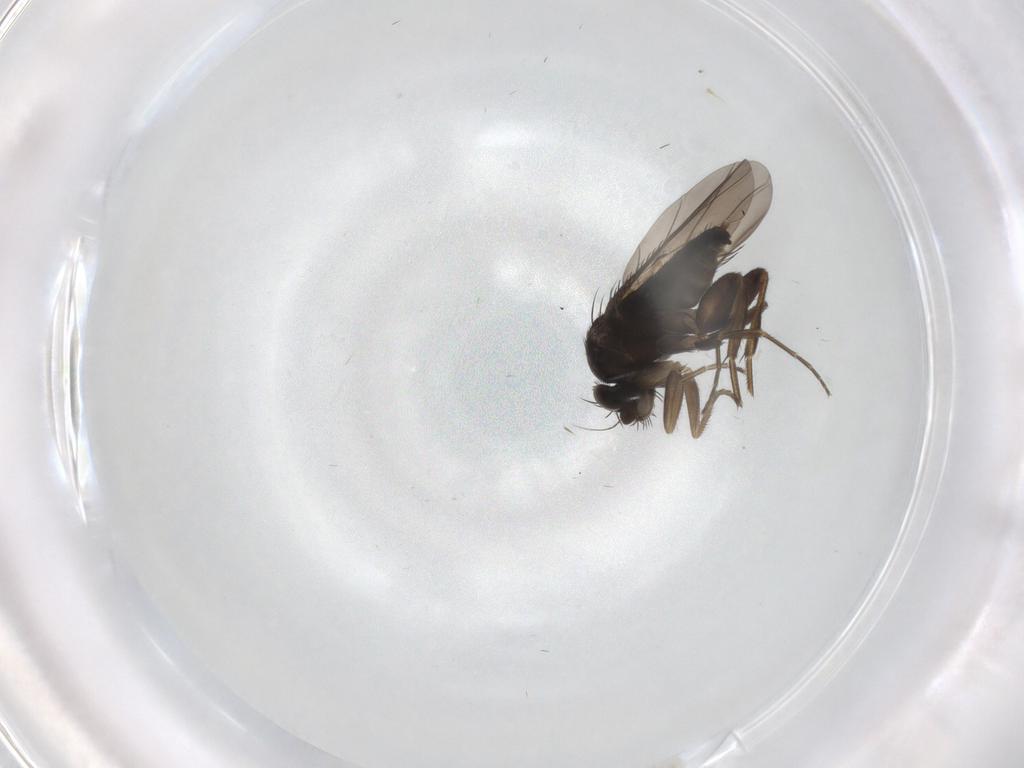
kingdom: Animalia
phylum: Arthropoda
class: Insecta
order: Diptera
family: Phoridae
